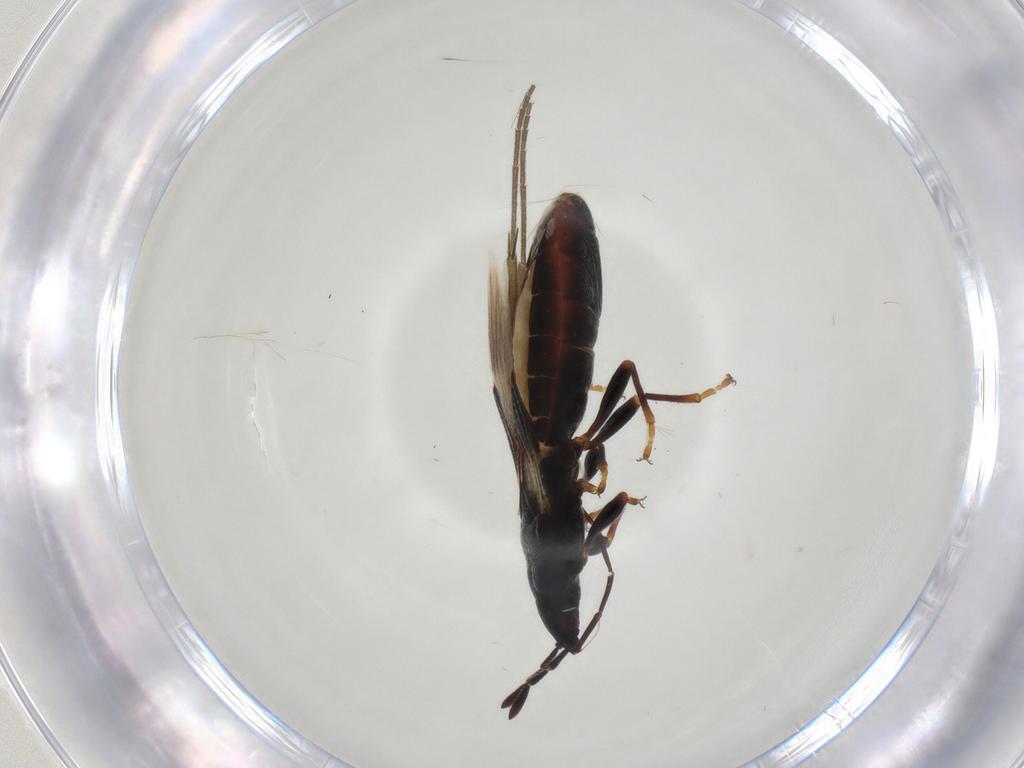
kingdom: Animalia
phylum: Arthropoda
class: Insecta
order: Hemiptera
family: Blissidae
